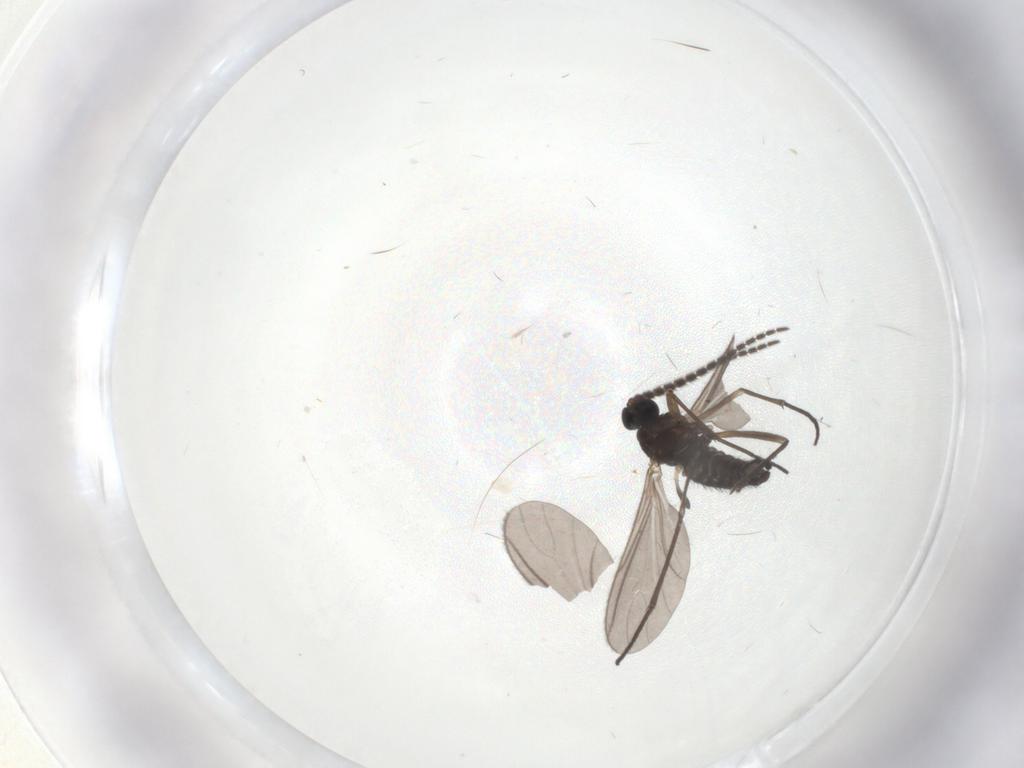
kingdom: Animalia
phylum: Arthropoda
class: Insecta
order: Diptera
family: Sciaridae
